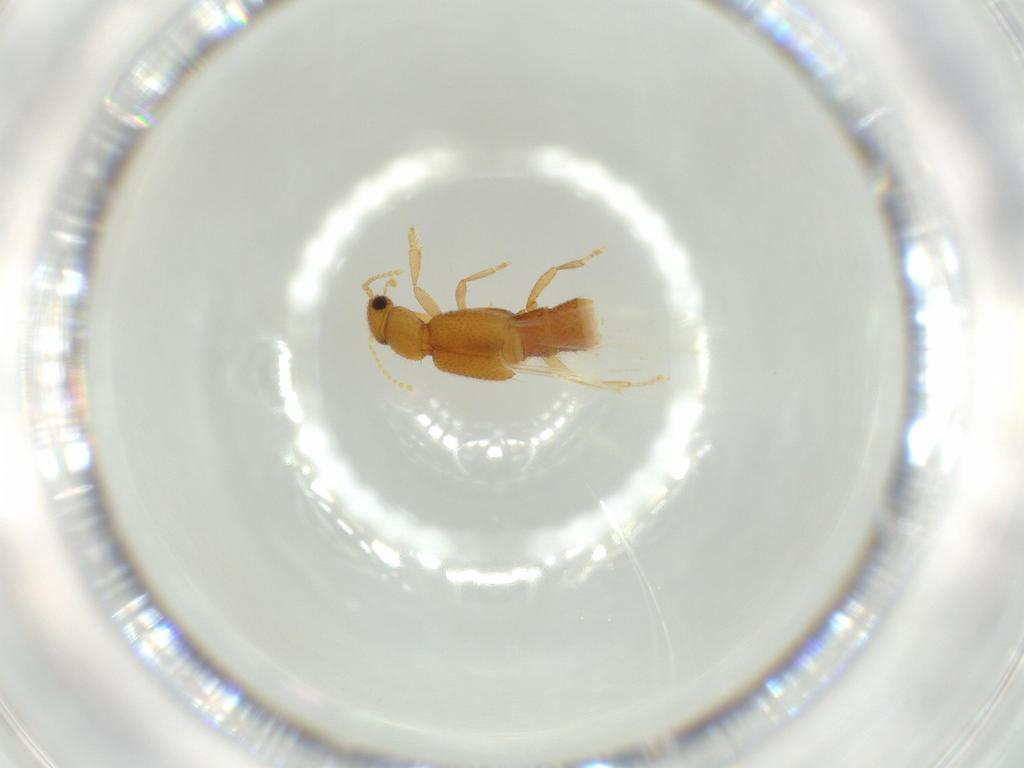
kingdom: Animalia
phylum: Arthropoda
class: Insecta
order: Coleoptera
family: Staphylinidae
